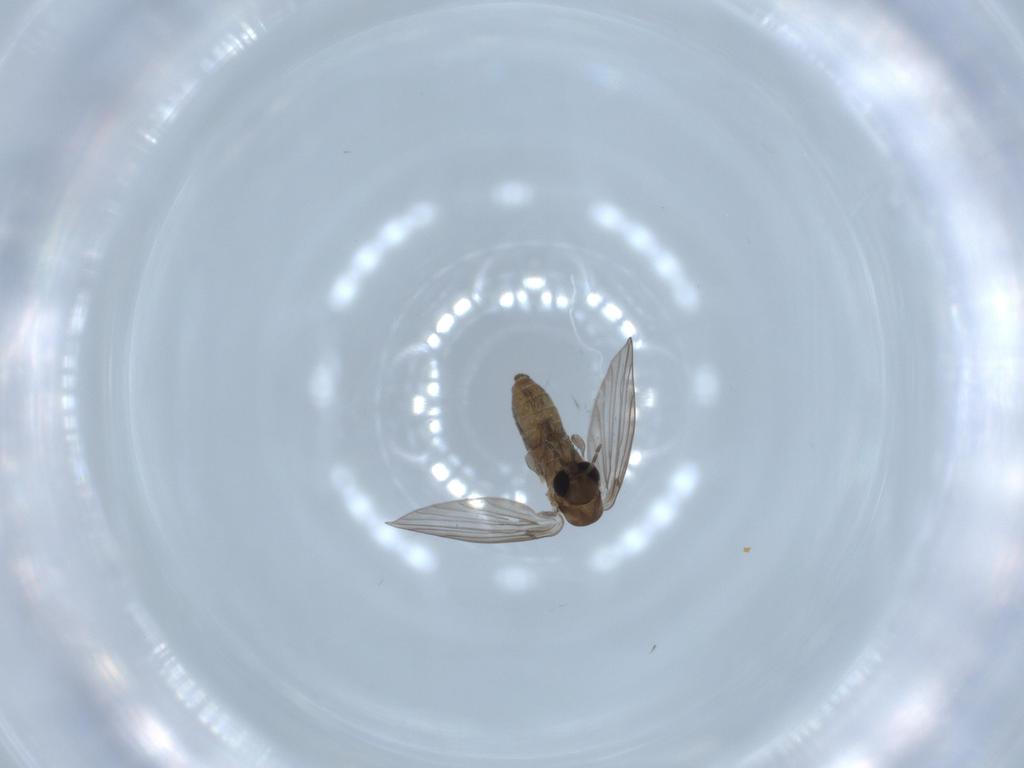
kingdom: Animalia
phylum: Arthropoda
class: Insecta
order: Diptera
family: Psychodidae
